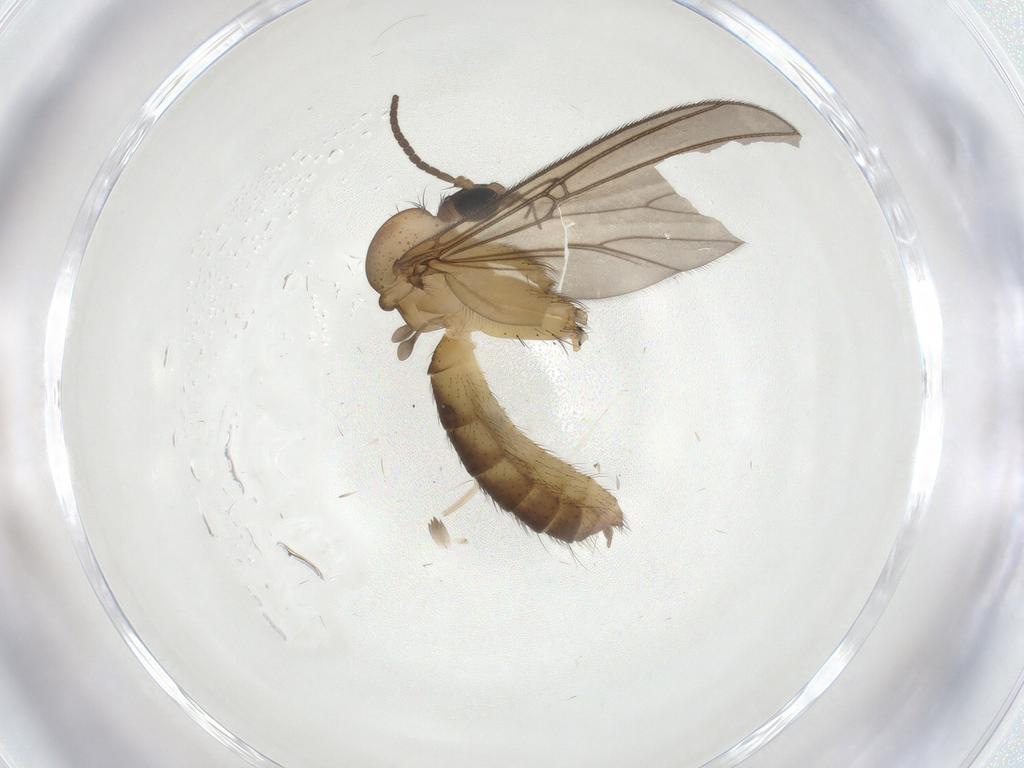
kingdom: Animalia
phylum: Arthropoda
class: Insecta
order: Diptera
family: Mycetophilidae
